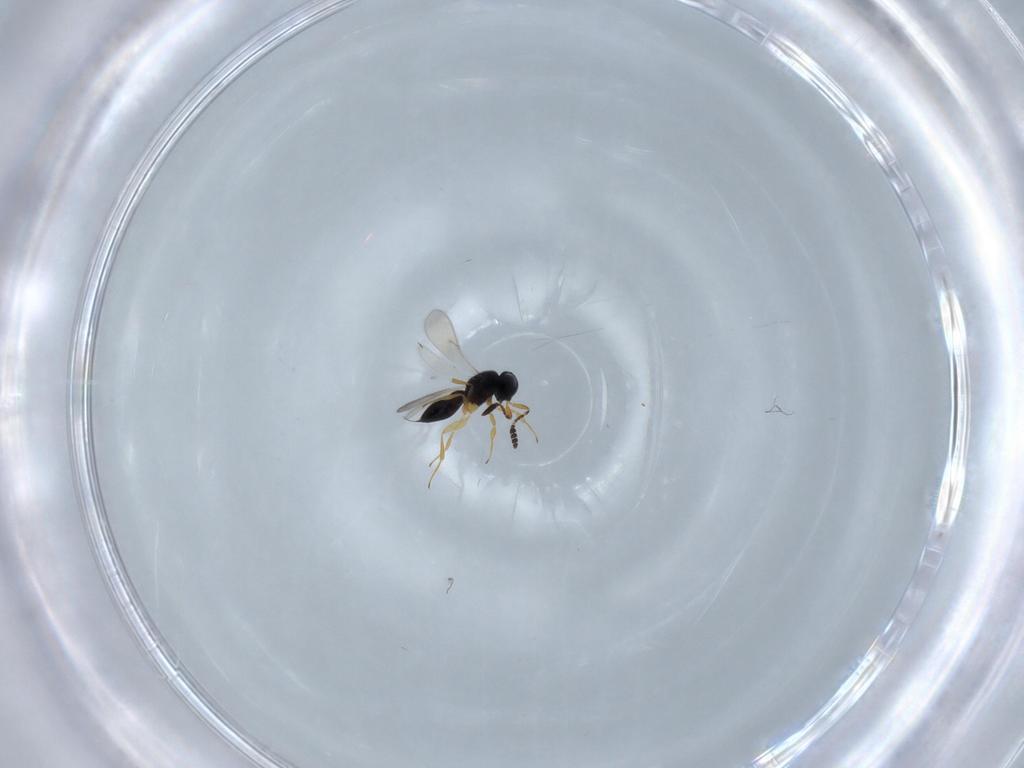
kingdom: Animalia
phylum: Arthropoda
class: Insecta
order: Hymenoptera
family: Scelionidae
